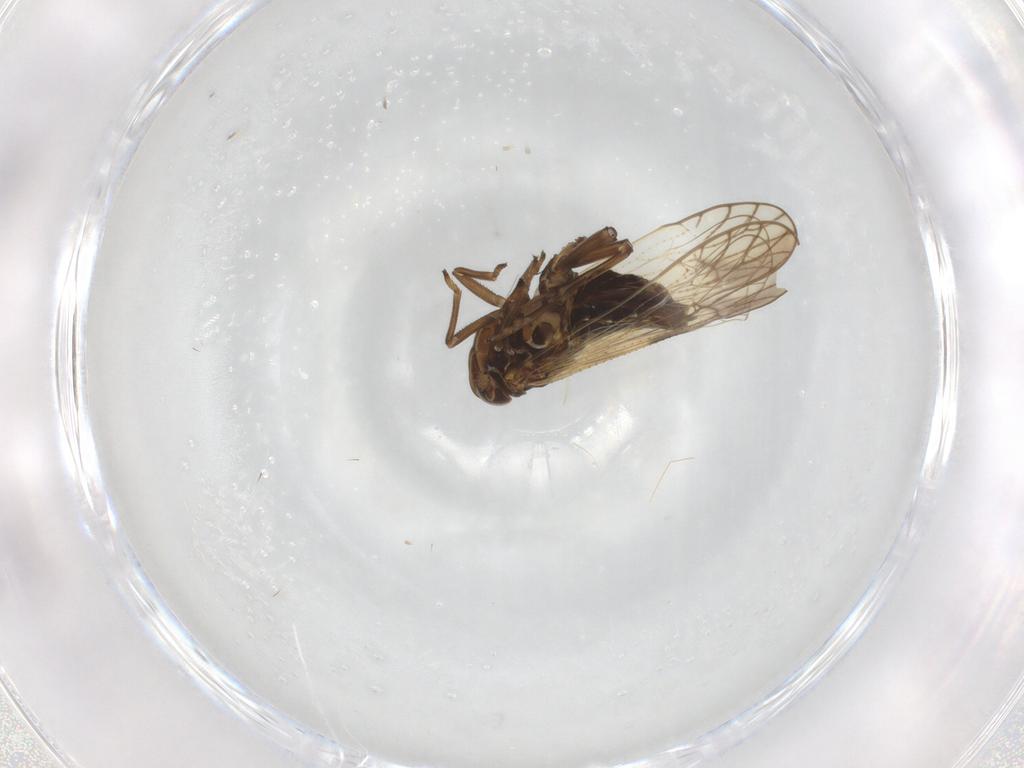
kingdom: Animalia
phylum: Arthropoda
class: Insecta
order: Hemiptera
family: Delphacidae
